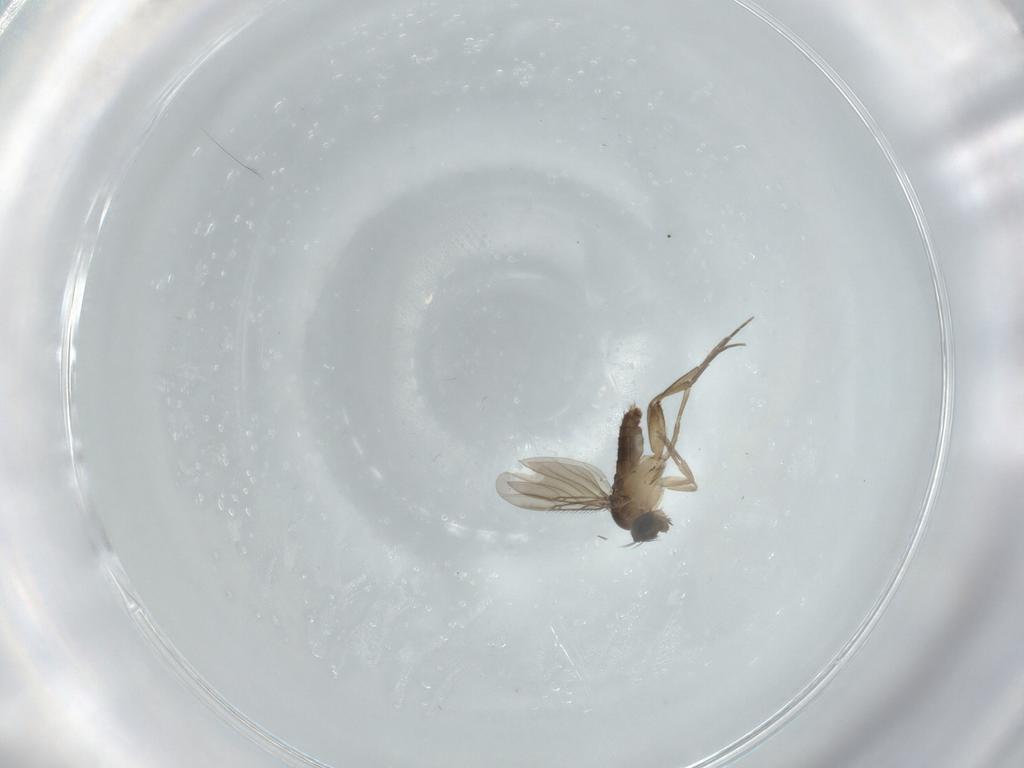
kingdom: Animalia
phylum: Arthropoda
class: Insecta
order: Diptera
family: Phoridae
